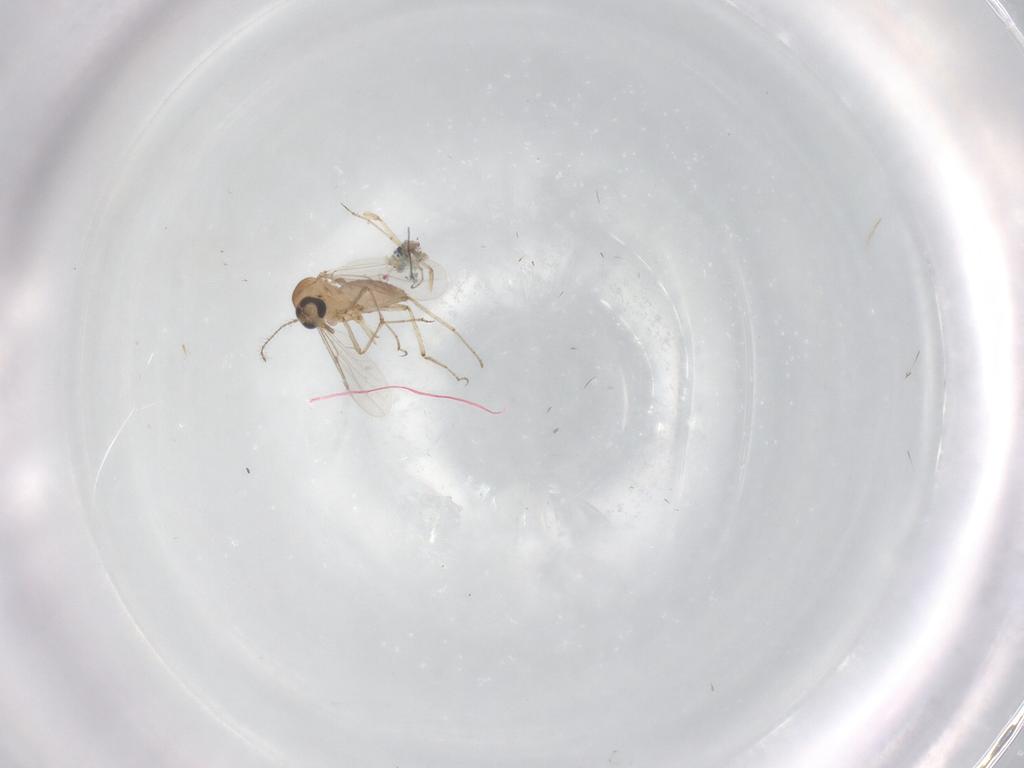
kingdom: Animalia
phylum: Arthropoda
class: Insecta
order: Diptera
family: Ceratopogonidae
